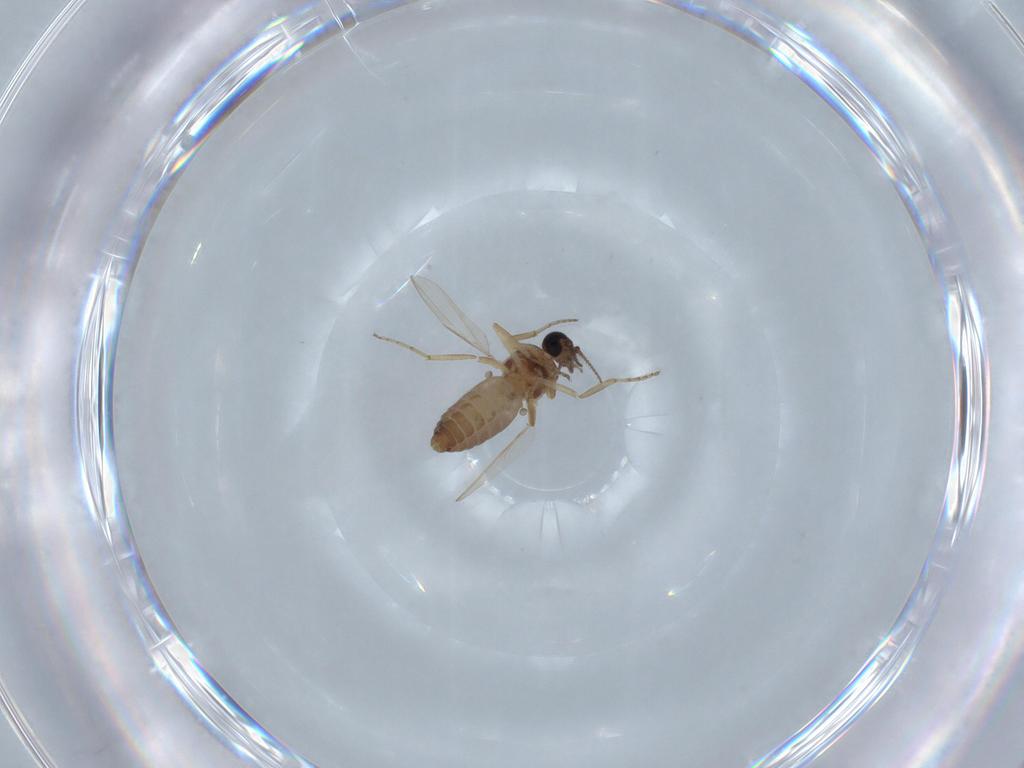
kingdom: Animalia
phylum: Arthropoda
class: Insecta
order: Diptera
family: Ceratopogonidae
